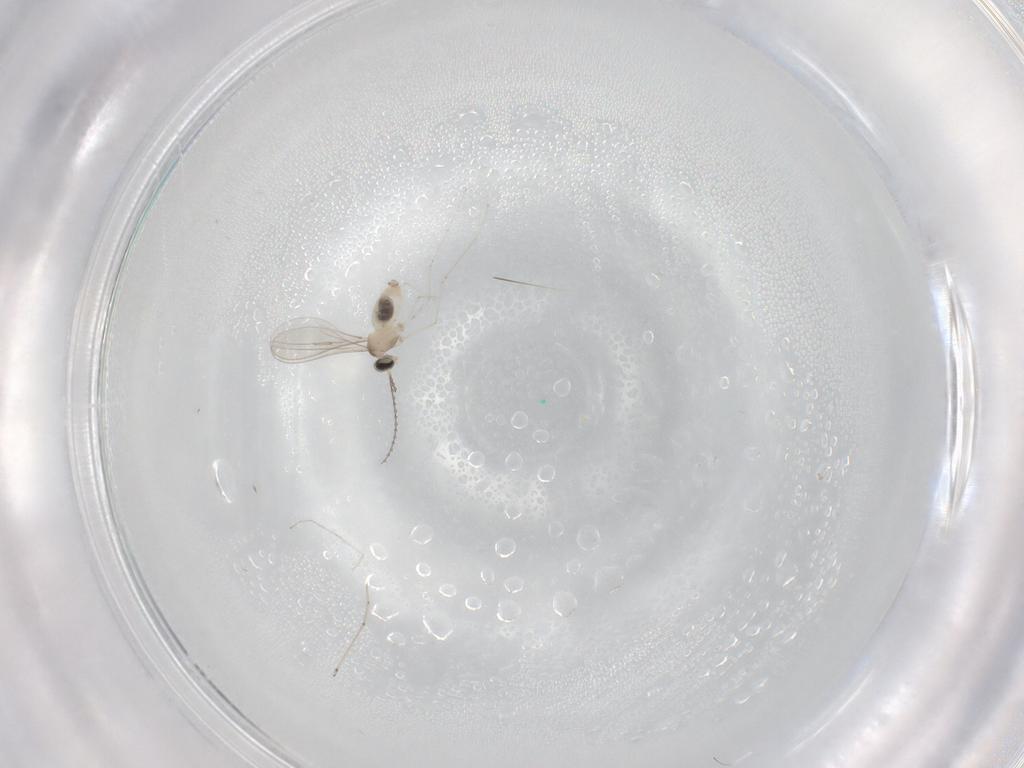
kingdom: Animalia
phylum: Arthropoda
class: Insecta
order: Diptera
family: Cecidomyiidae
